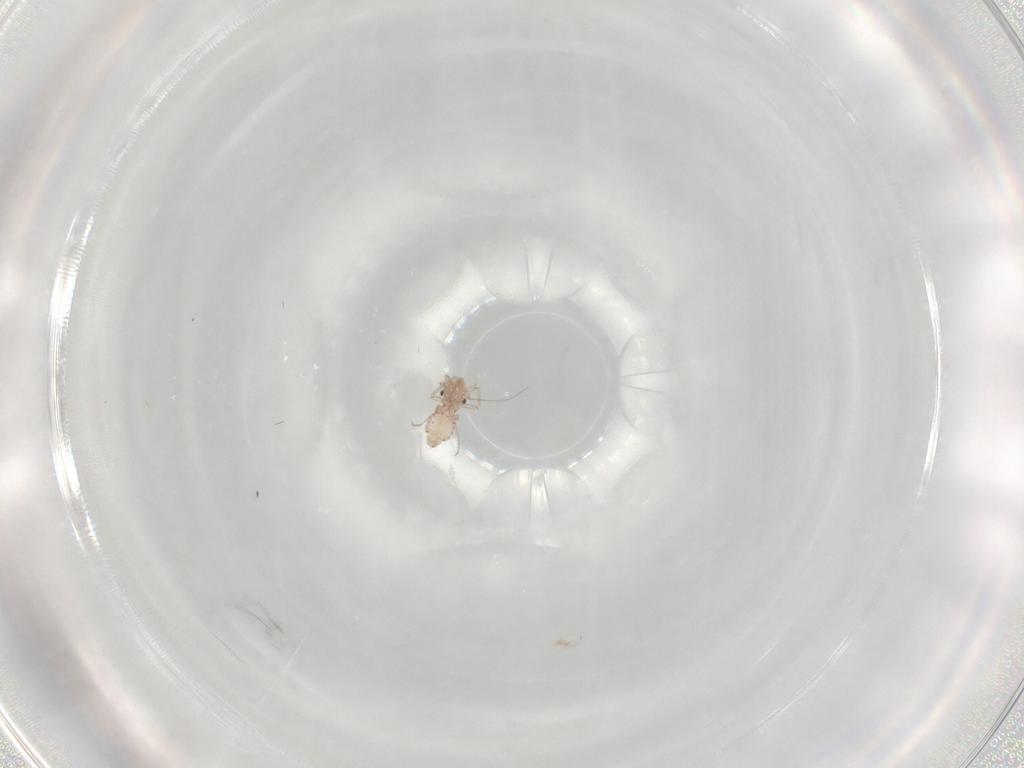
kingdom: Animalia
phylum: Arthropoda
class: Insecta
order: Psocodea
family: Lepidopsocidae
